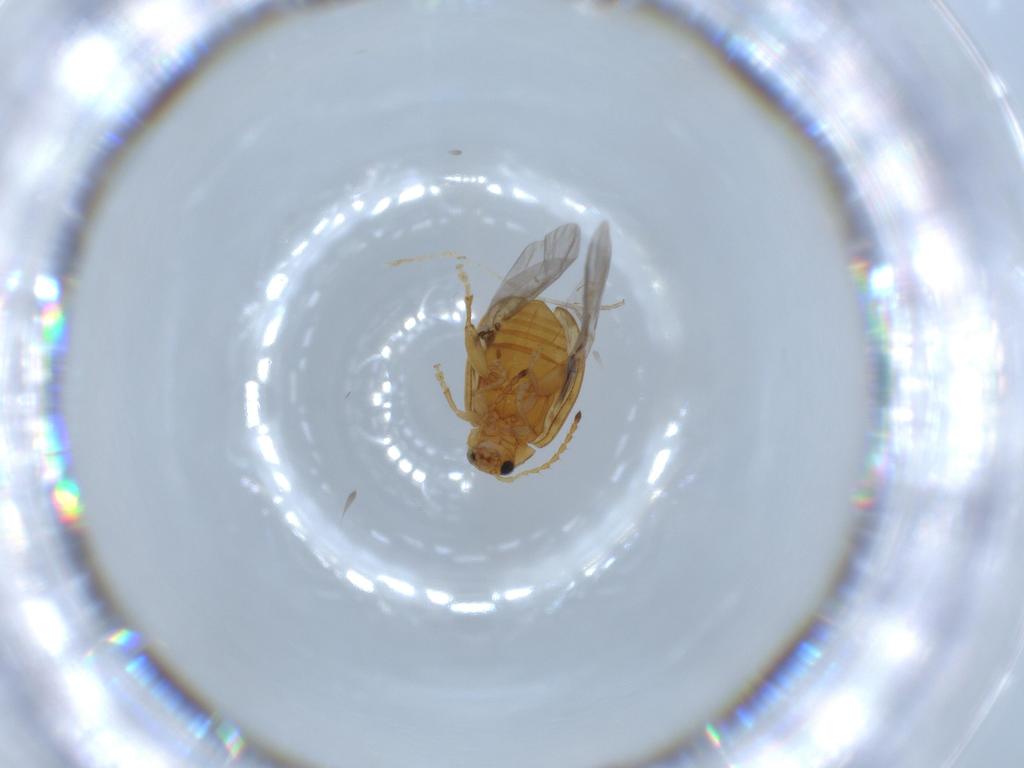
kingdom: Animalia
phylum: Arthropoda
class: Insecta
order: Coleoptera
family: Chrysomelidae
